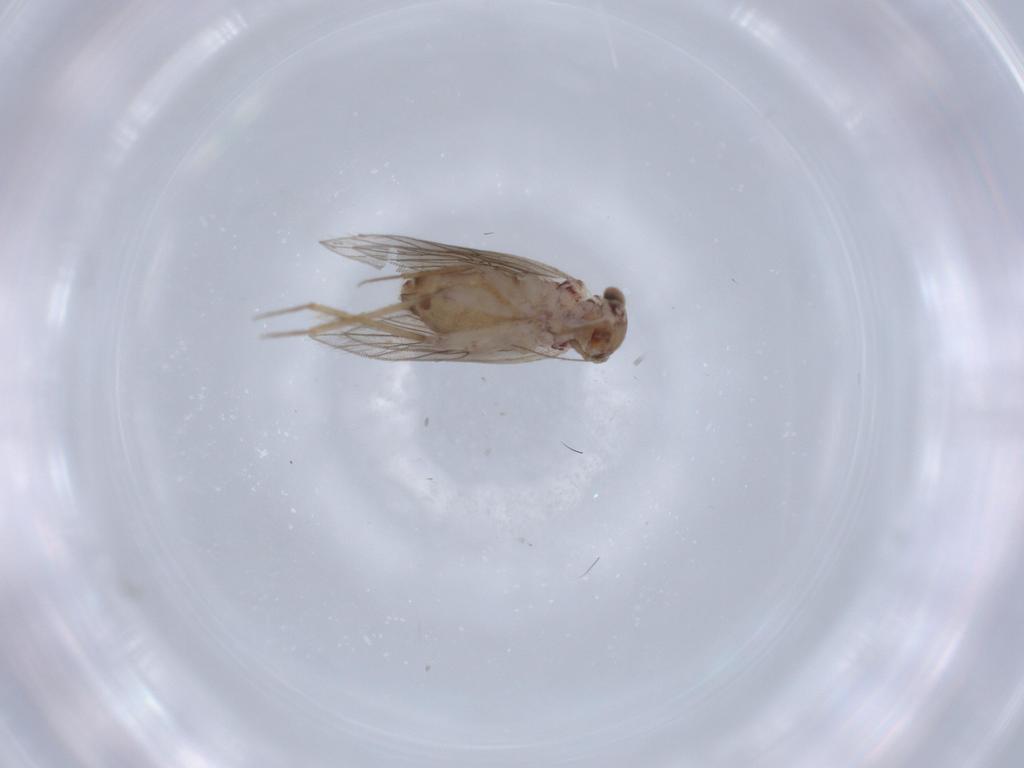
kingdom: Animalia
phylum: Arthropoda
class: Insecta
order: Psocodea
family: Lepidopsocidae
